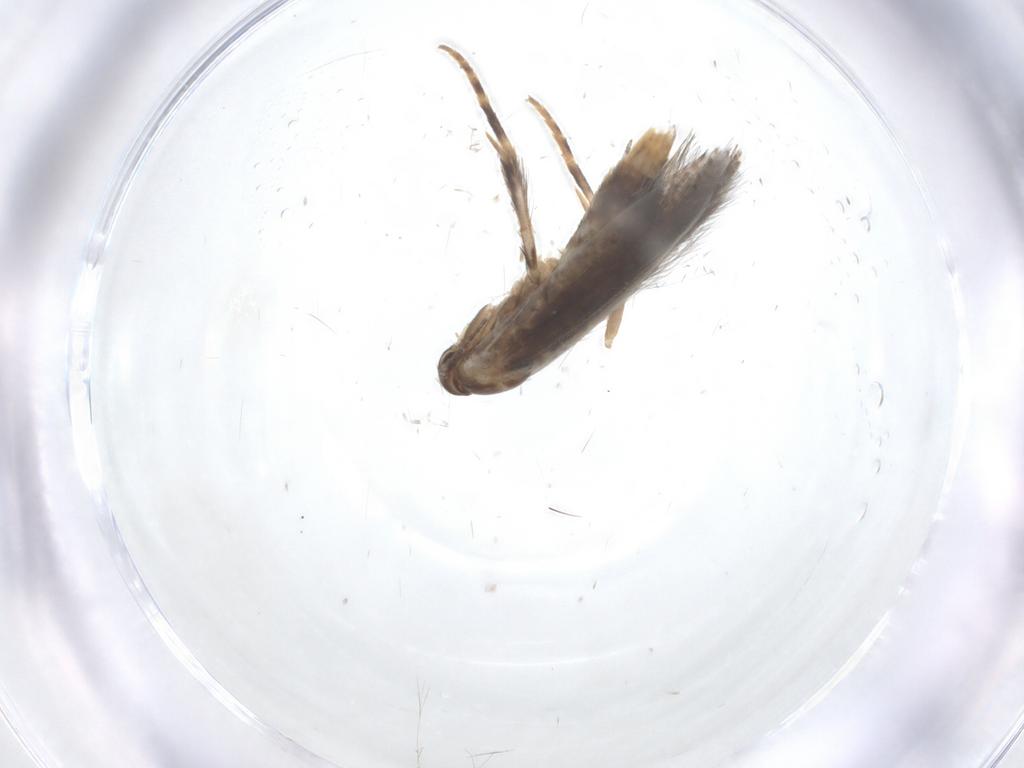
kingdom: Animalia
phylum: Arthropoda
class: Insecta
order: Lepidoptera
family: Elachistidae
